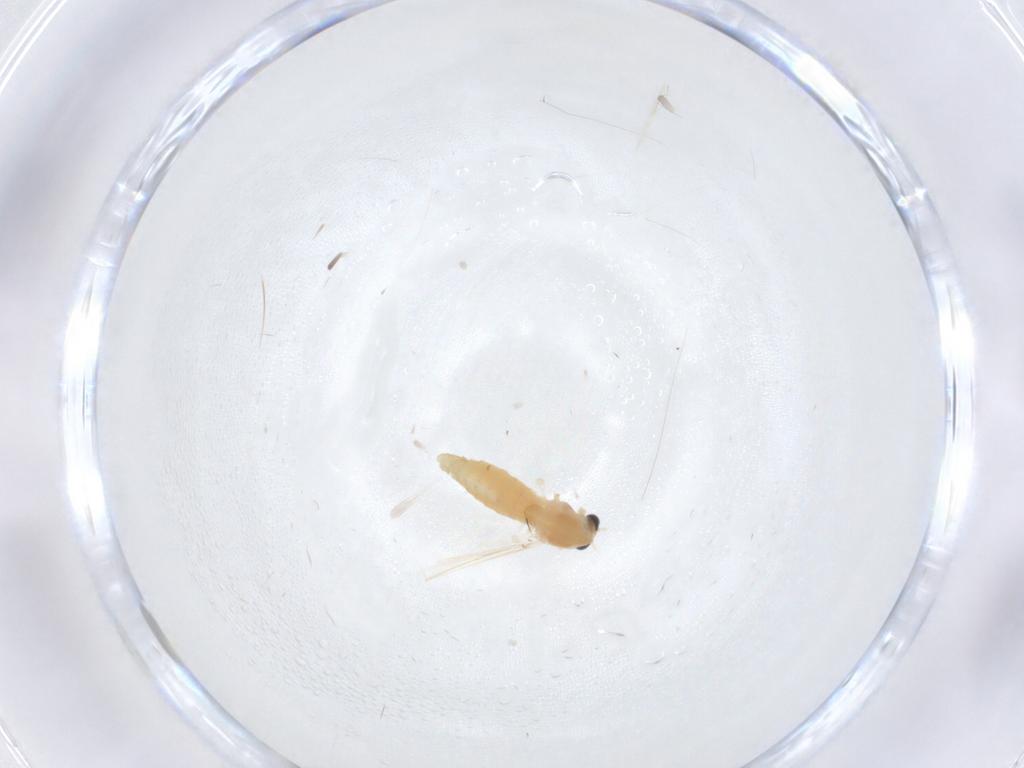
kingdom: Animalia
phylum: Arthropoda
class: Insecta
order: Diptera
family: Chironomidae
